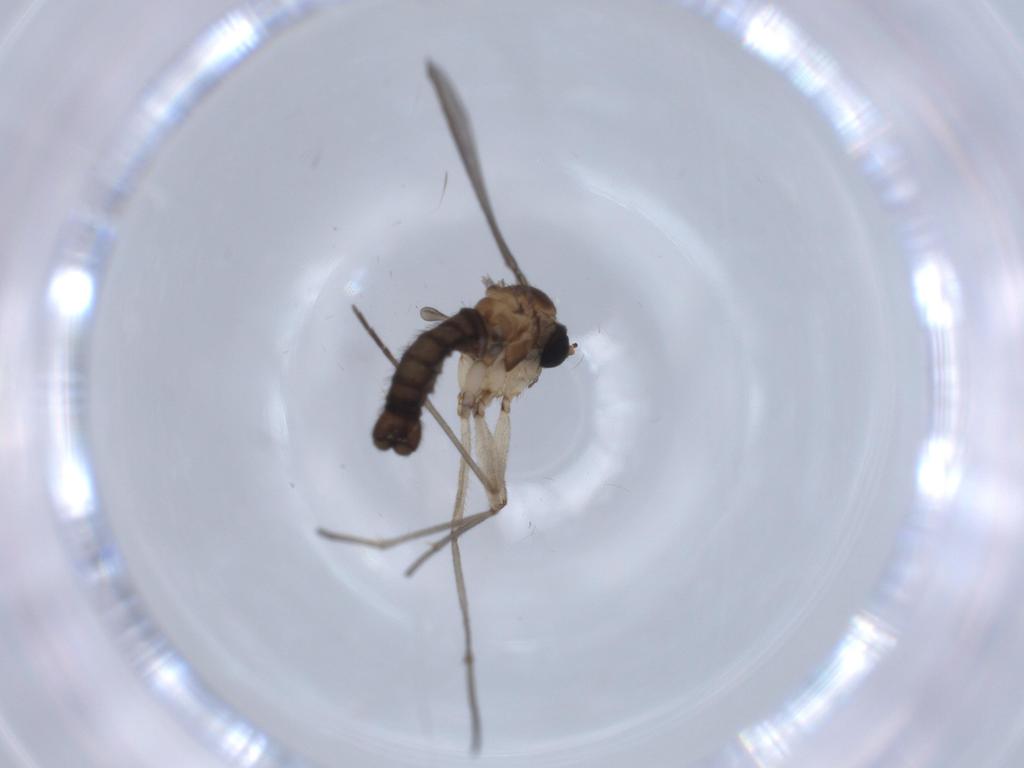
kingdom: Animalia
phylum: Arthropoda
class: Insecta
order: Diptera
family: Sciaridae
